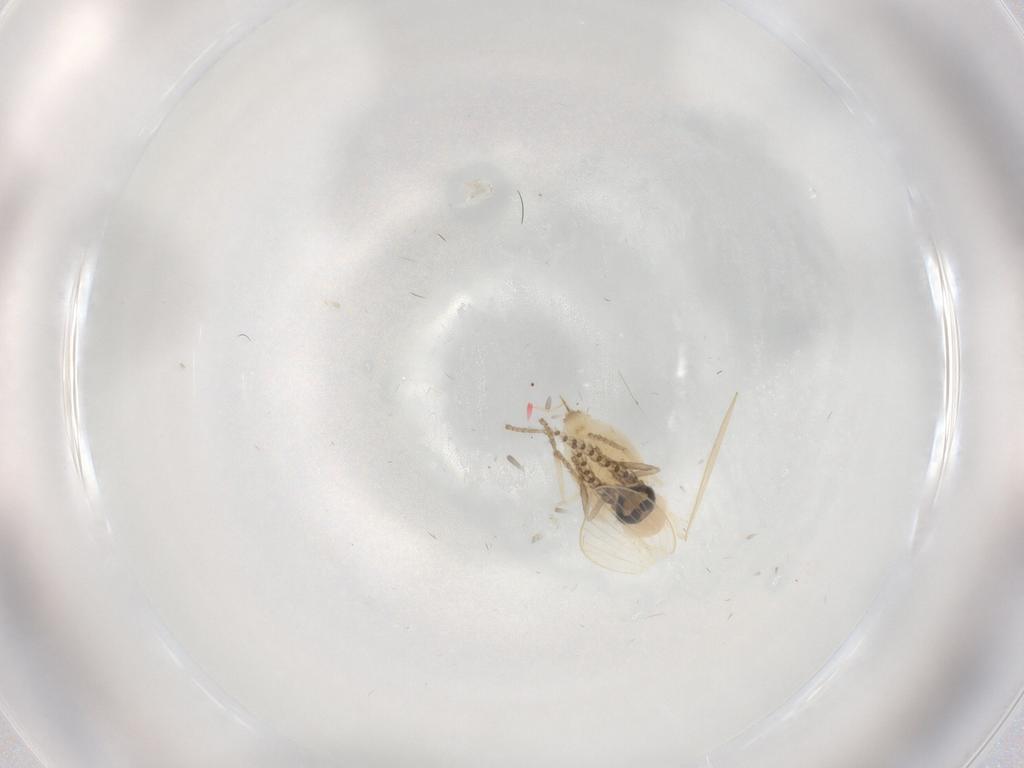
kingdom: Animalia
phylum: Arthropoda
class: Insecta
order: Diptera
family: Psychodidae
